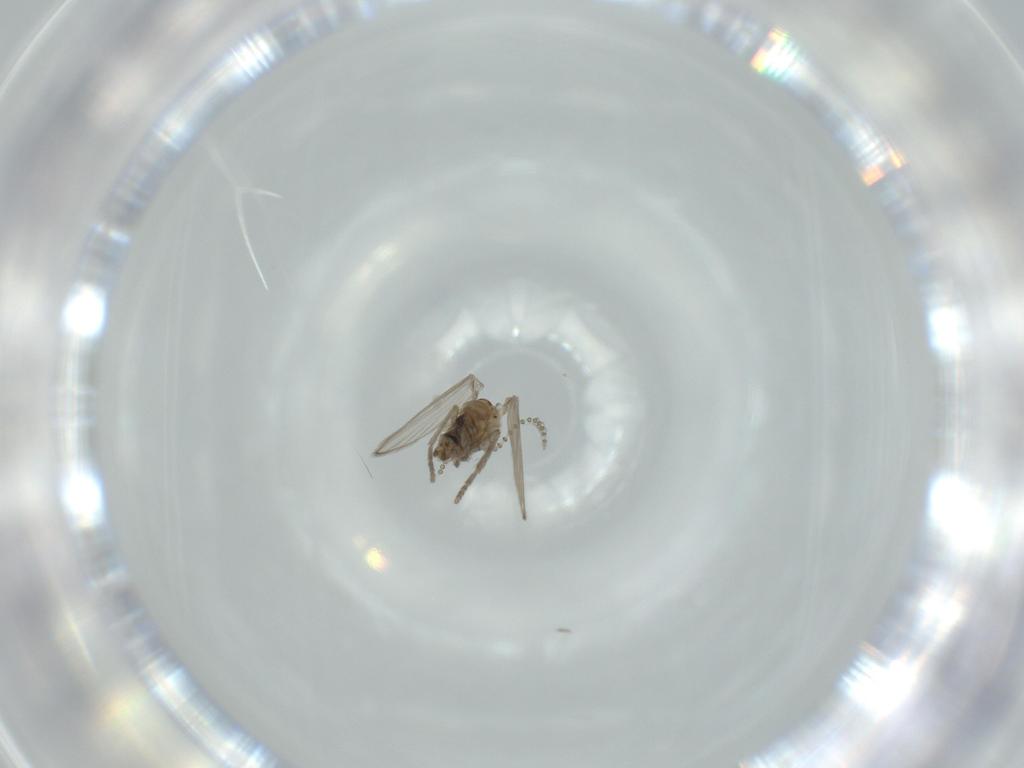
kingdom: Animalia
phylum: Arthropoda
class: Insecta
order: Diptera
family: Psychodidae
